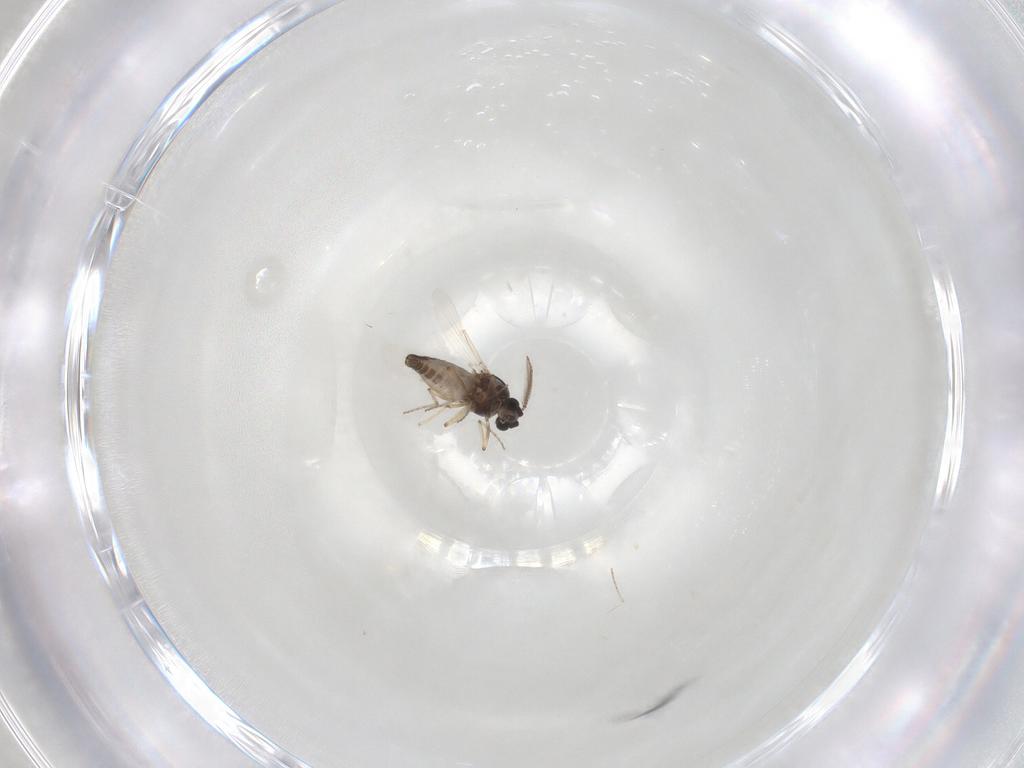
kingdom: Animalia
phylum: Arthropoda
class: Insecta
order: Diptera
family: Ceratopogonidae
